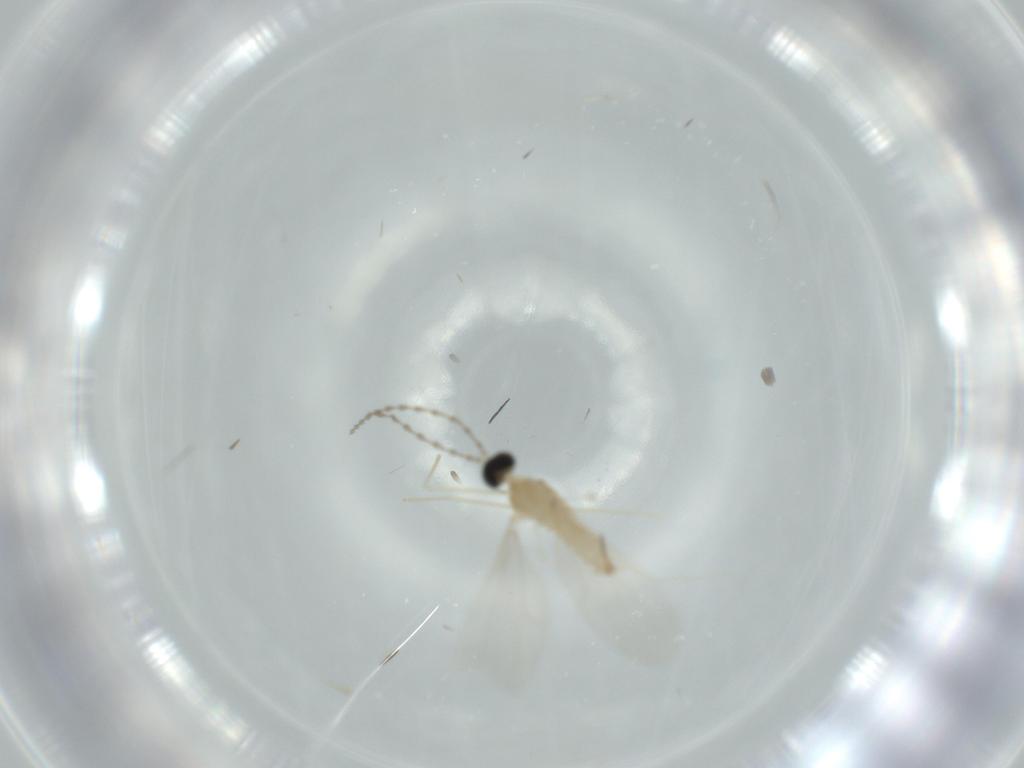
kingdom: Animalia
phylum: Arthropoda
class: Insecta
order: Diptera
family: Cecidomyiidae
